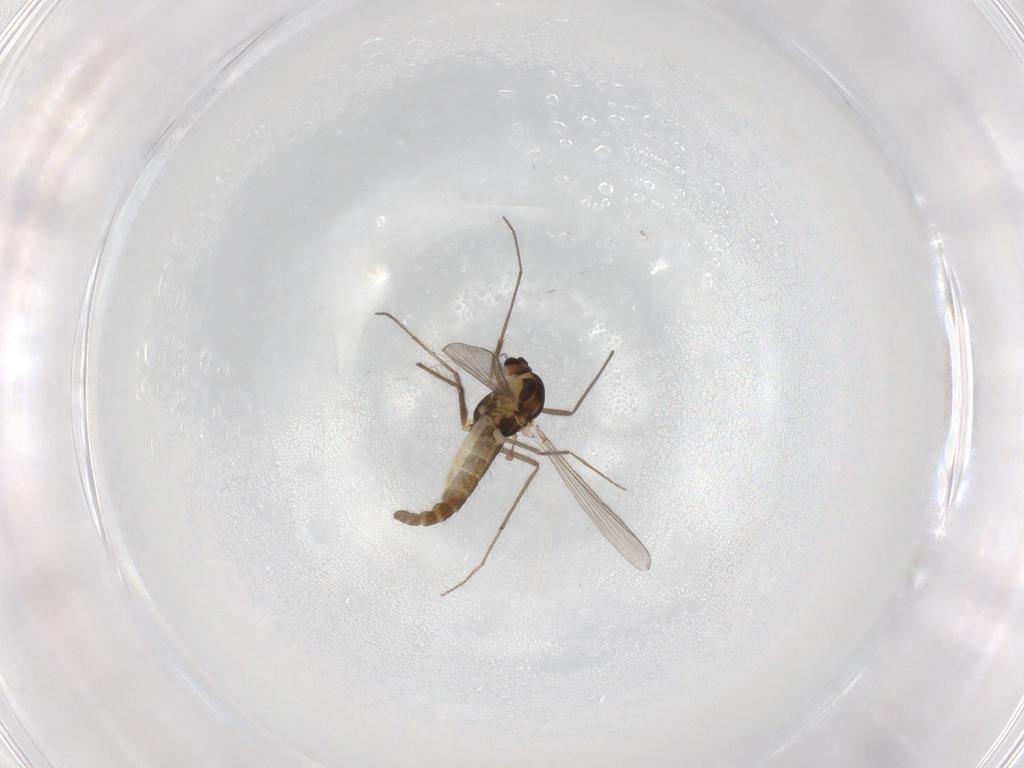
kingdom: Animalia
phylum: Arthropoda
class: Insecta
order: Diptera
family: Chironomidae
